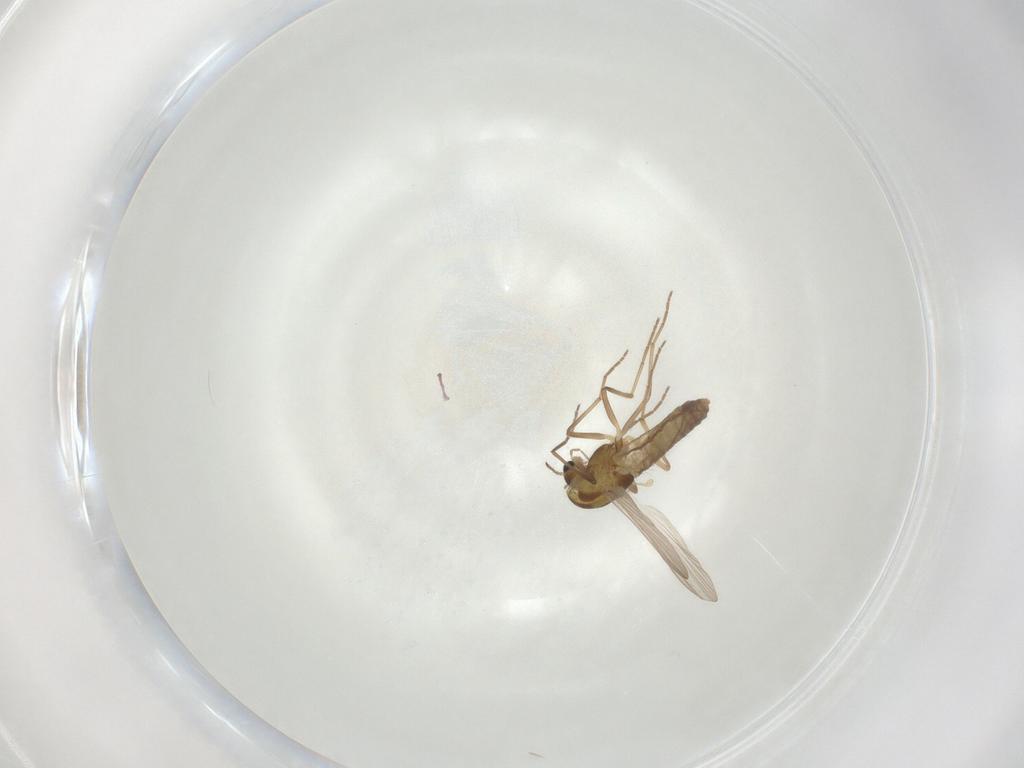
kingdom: Animalia
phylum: Arthropoda
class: Insecta
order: Diptera
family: Chironomidae
